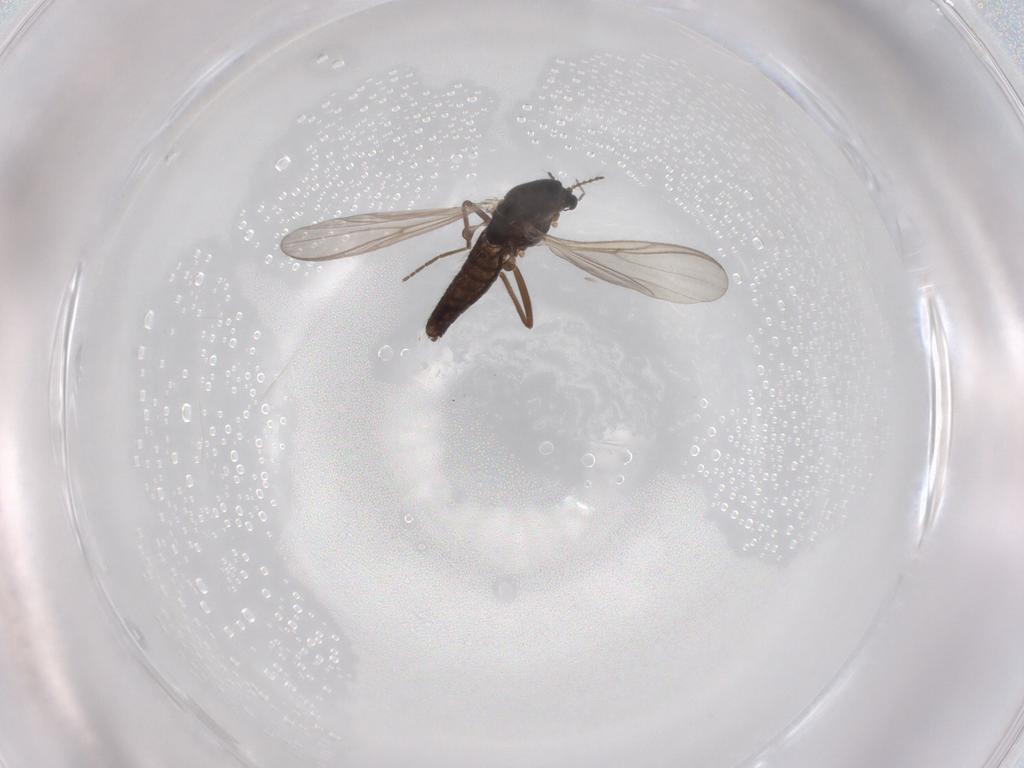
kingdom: Animalia
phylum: Arthropoda
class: Insecta
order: Diptera
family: Chironomidae
